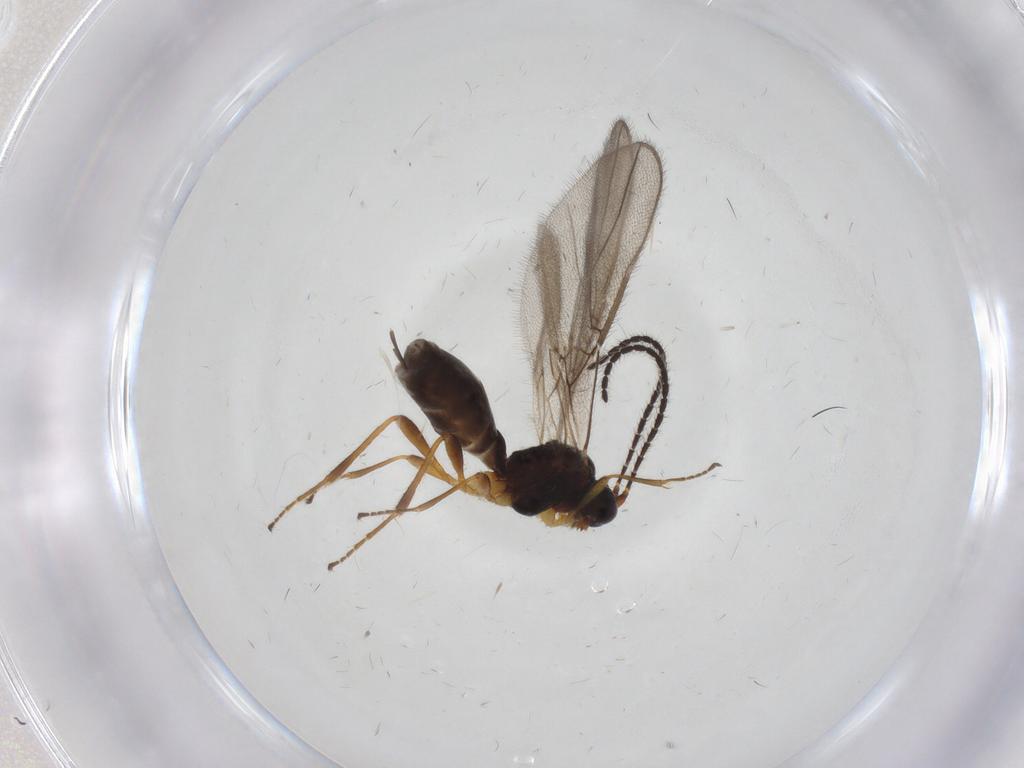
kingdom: Animalia
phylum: Arthropoda
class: Insecta
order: Hymenoptera
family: Braconidae
